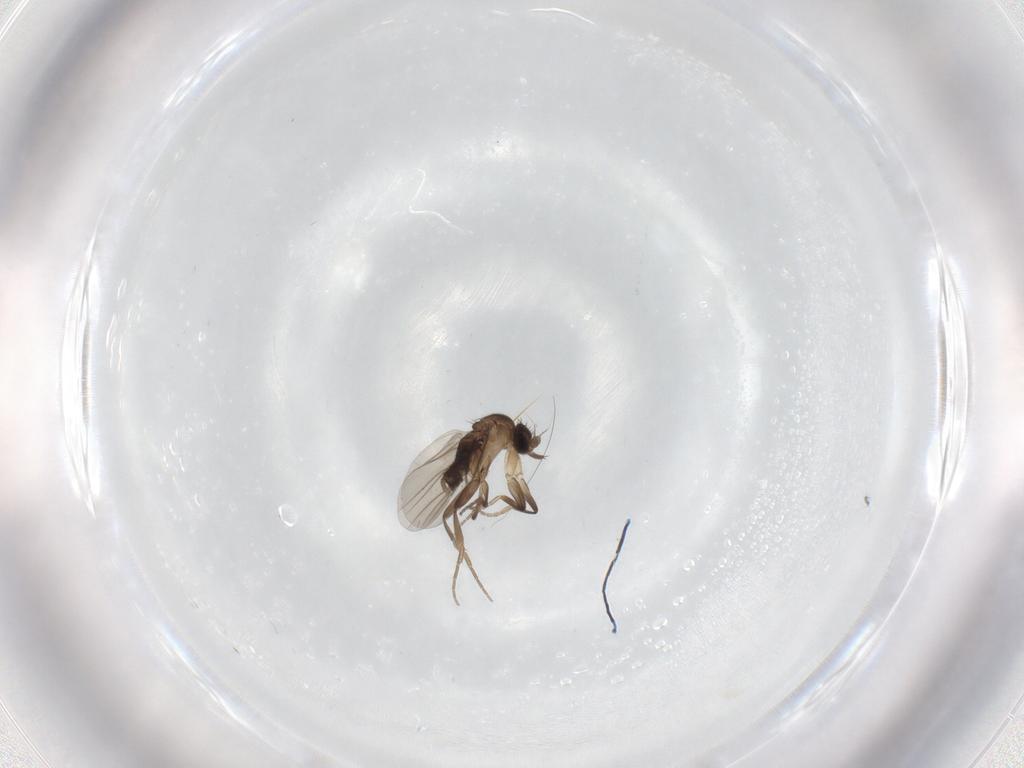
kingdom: Animalia
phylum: Arthropoda
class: Insecta
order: Diptera
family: Phoridae
